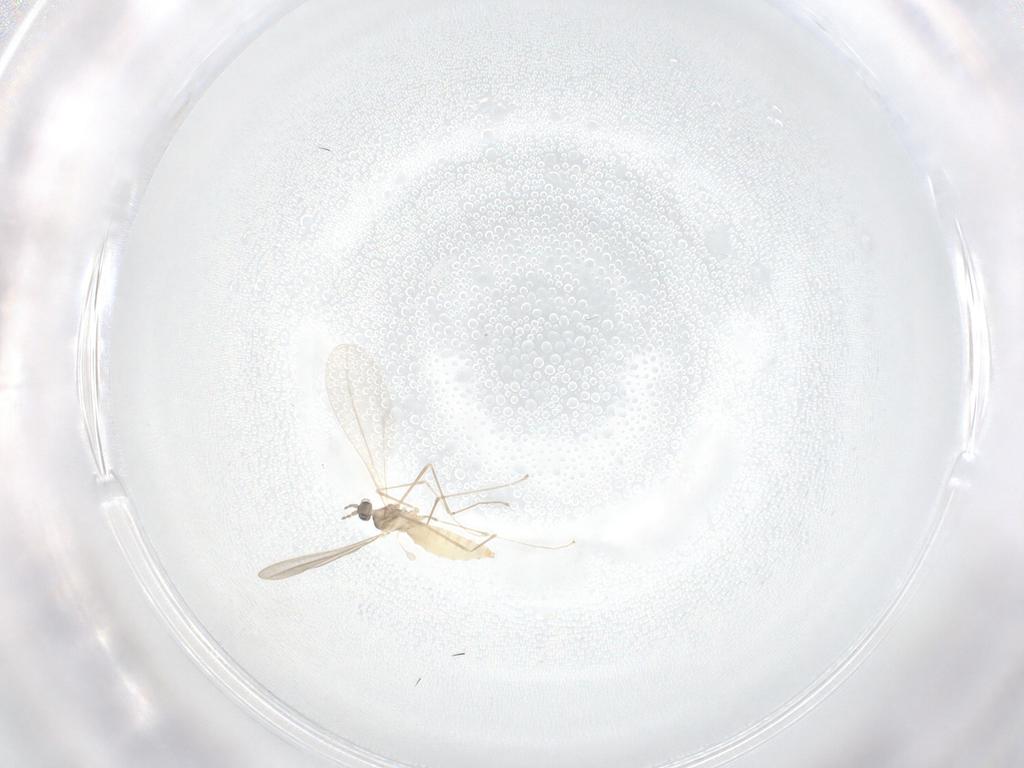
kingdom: Animalia
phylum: Arthropoda
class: Insecta
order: Diptera
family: Cecidomyiidae
